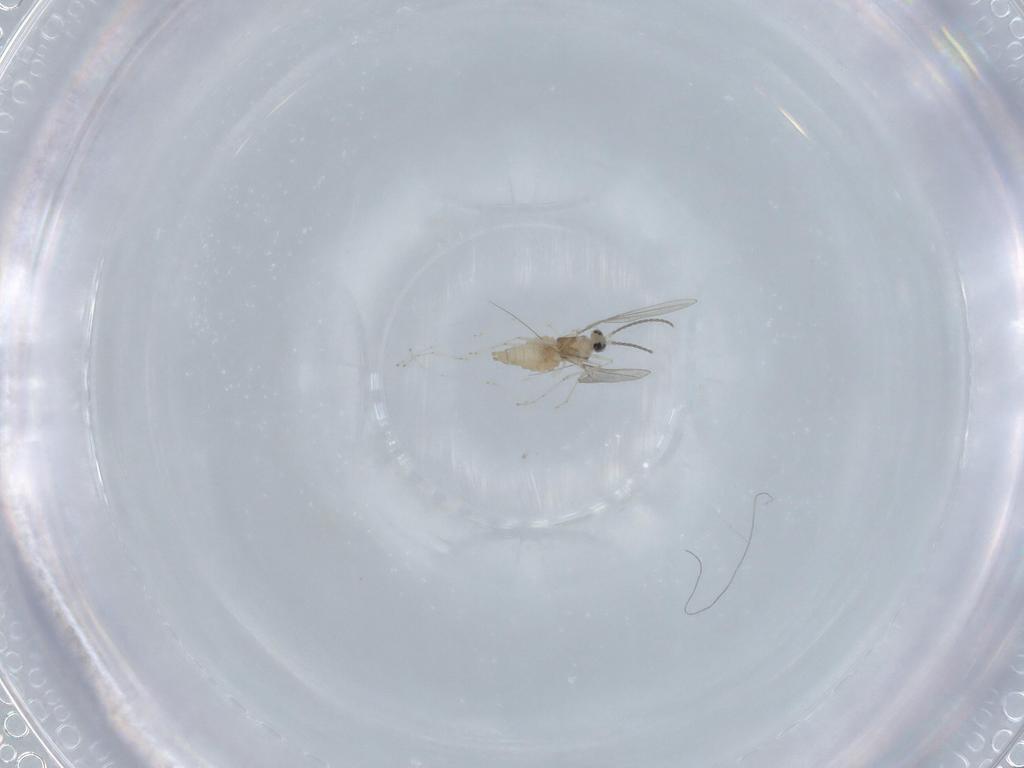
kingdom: Animalia
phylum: Arthropoda
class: Insecta
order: Diptera
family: Cecidomyiidae
